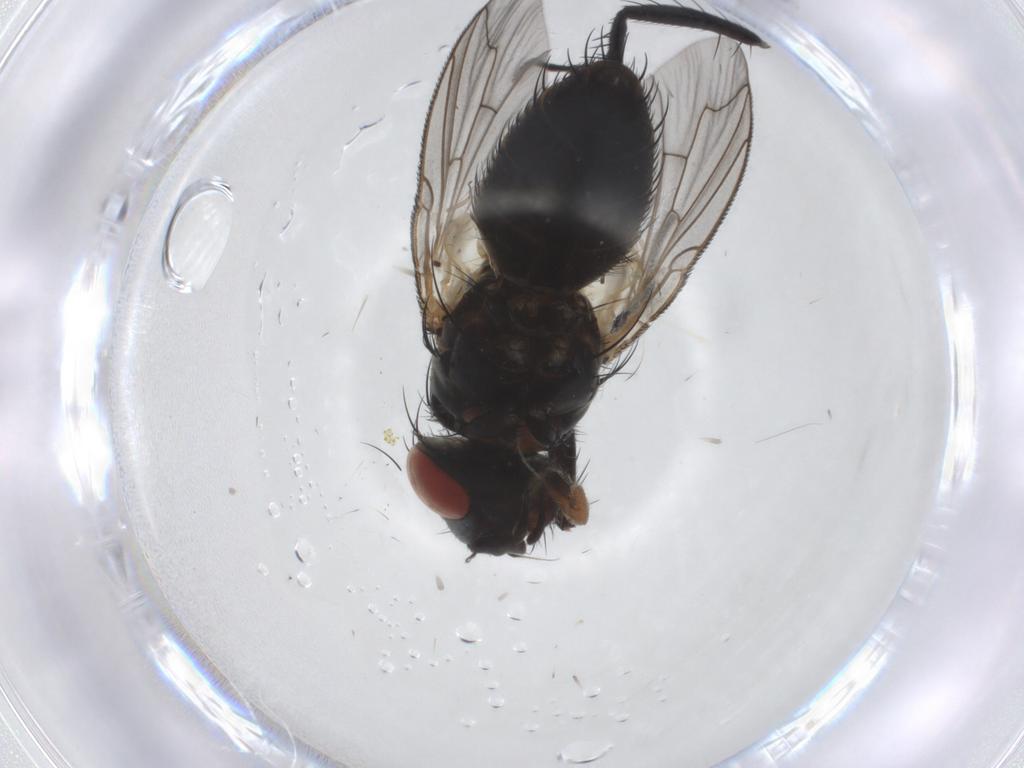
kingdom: Animalia
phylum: Arthropoda
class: Insecta
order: Diptera
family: Sarcophagidae
